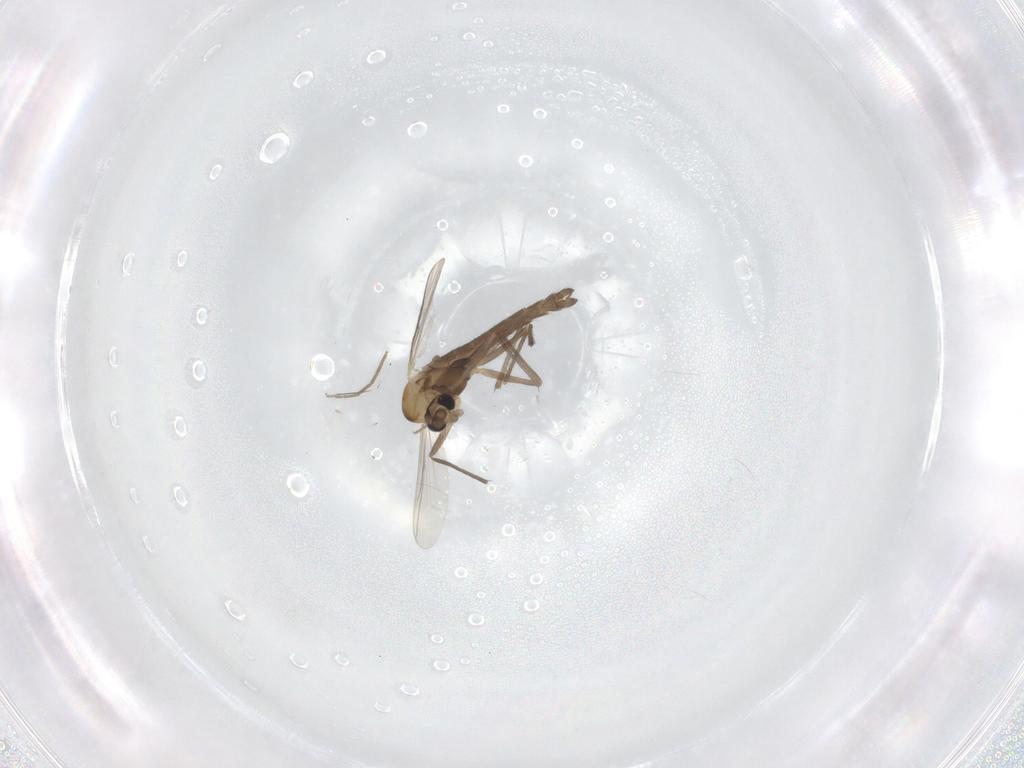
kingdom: Animalia
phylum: Arthropoda
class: Insecta
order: Diptera
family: Chironomidae
